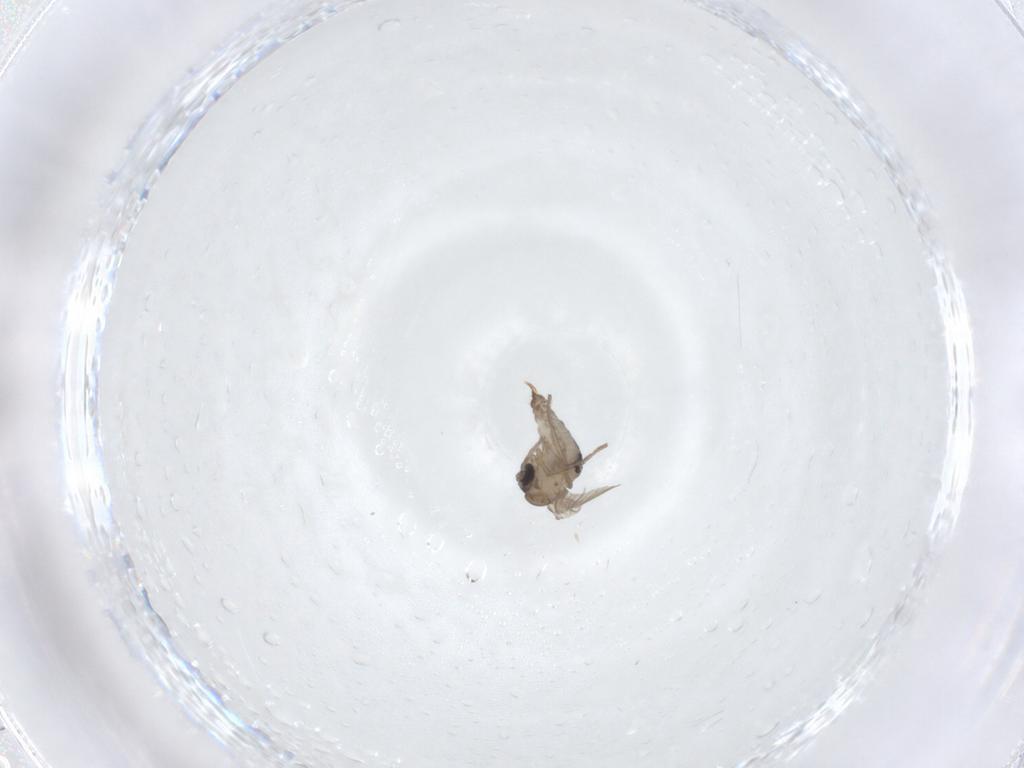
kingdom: Animalia
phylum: Arthropoda
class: Insecta
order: Diptera
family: Psychodidae
